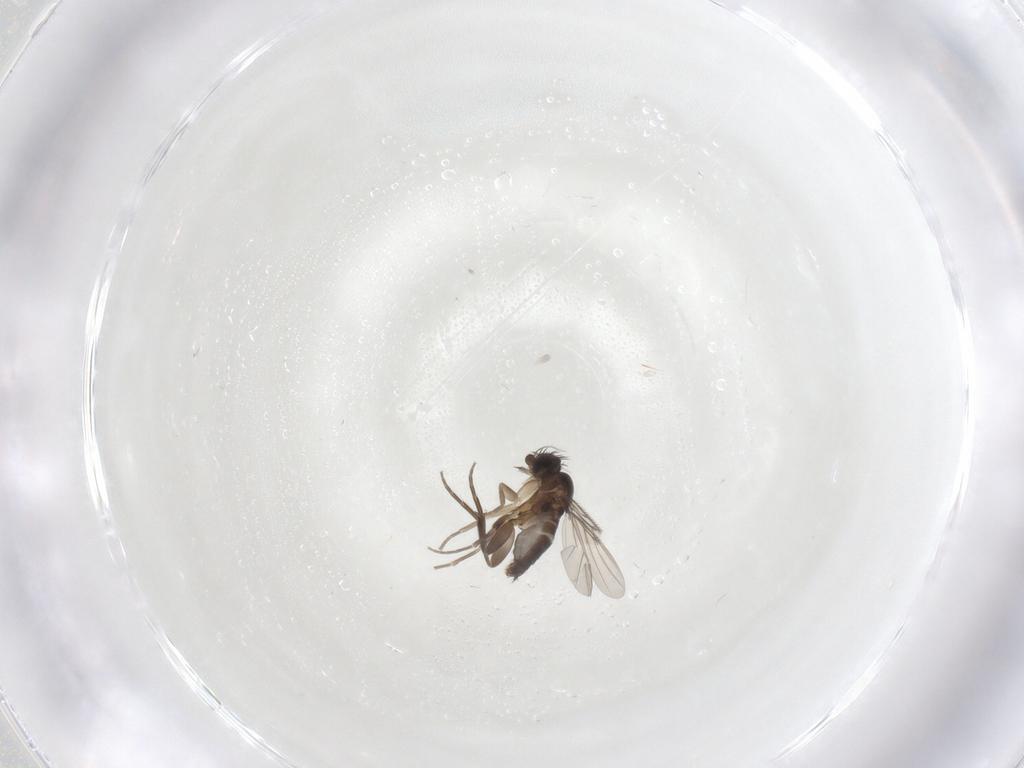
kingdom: Animalia
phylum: Arthropoda
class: Insecta
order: Diptera
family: Phoridae
